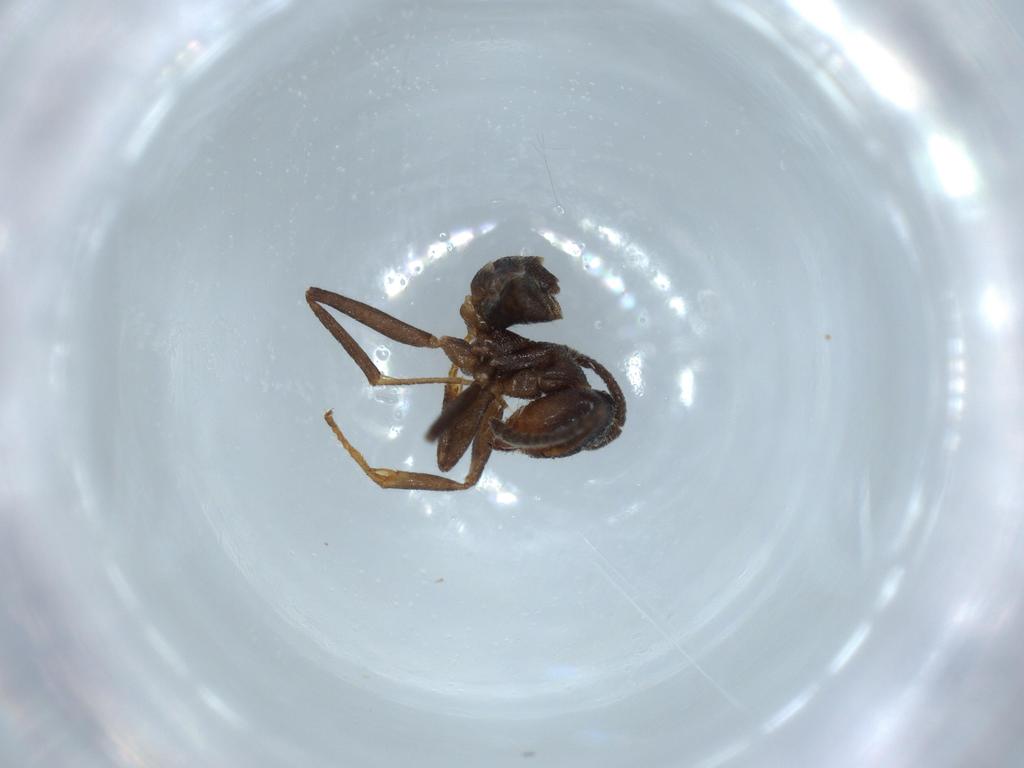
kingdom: Animalia
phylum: Arthropoda
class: Insecta
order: Hymenoptera
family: Formicidae
